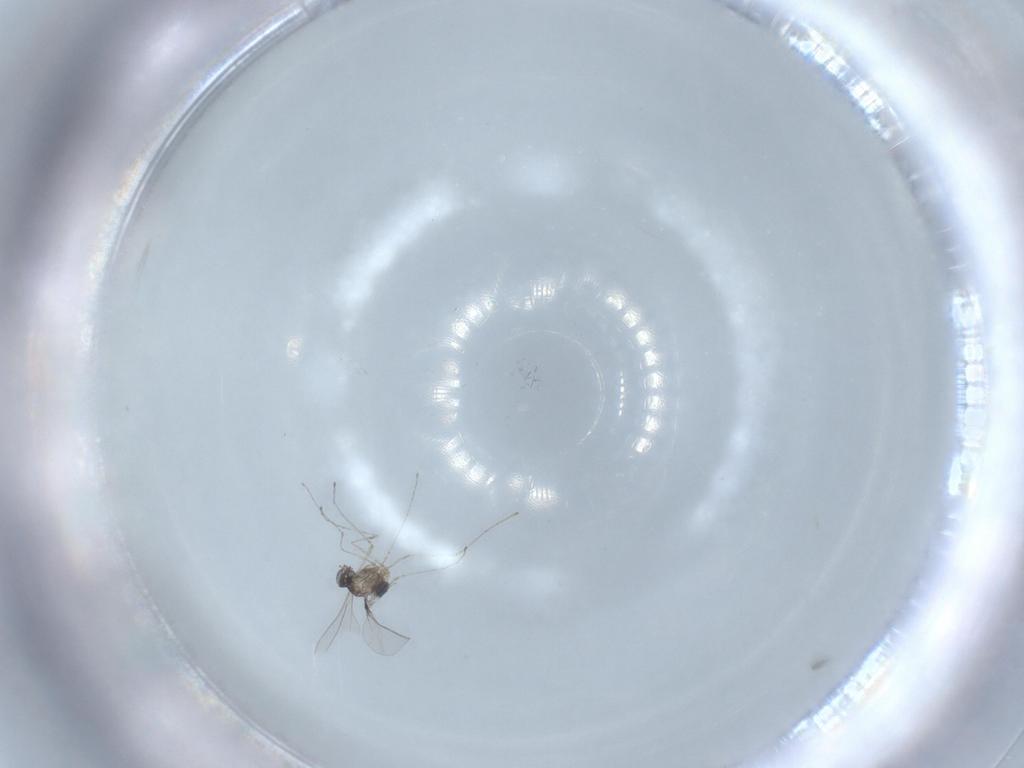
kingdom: Animalia
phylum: Arthropoda
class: Insecta
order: Diptera
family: Sphaeroceridae
